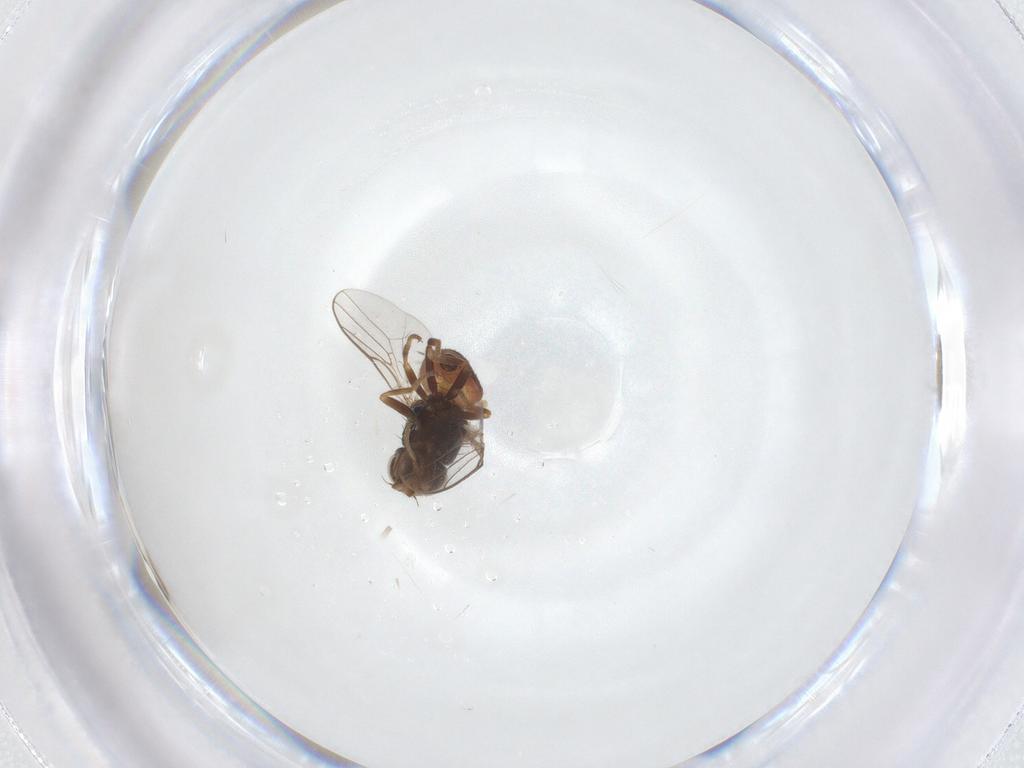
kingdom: Animalia
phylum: Arthropoda
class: Insecta
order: Diptera
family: Chloropidae
